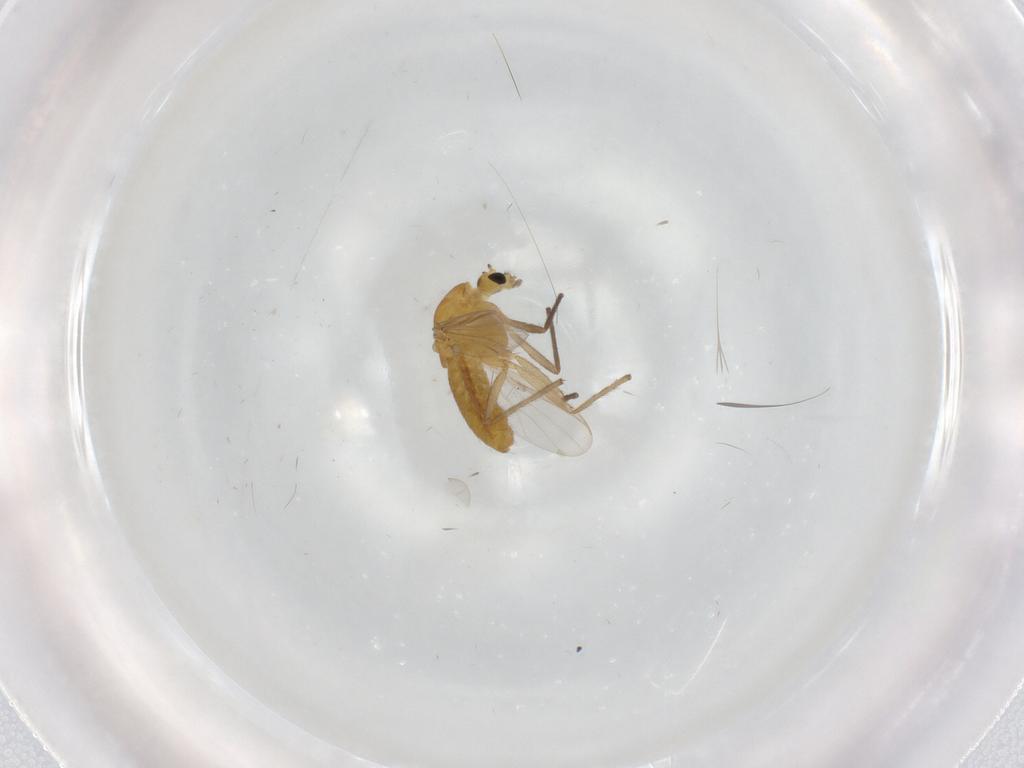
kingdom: Animalia
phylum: Arthropoda
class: Insecta
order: Diptera
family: Chironomidae
